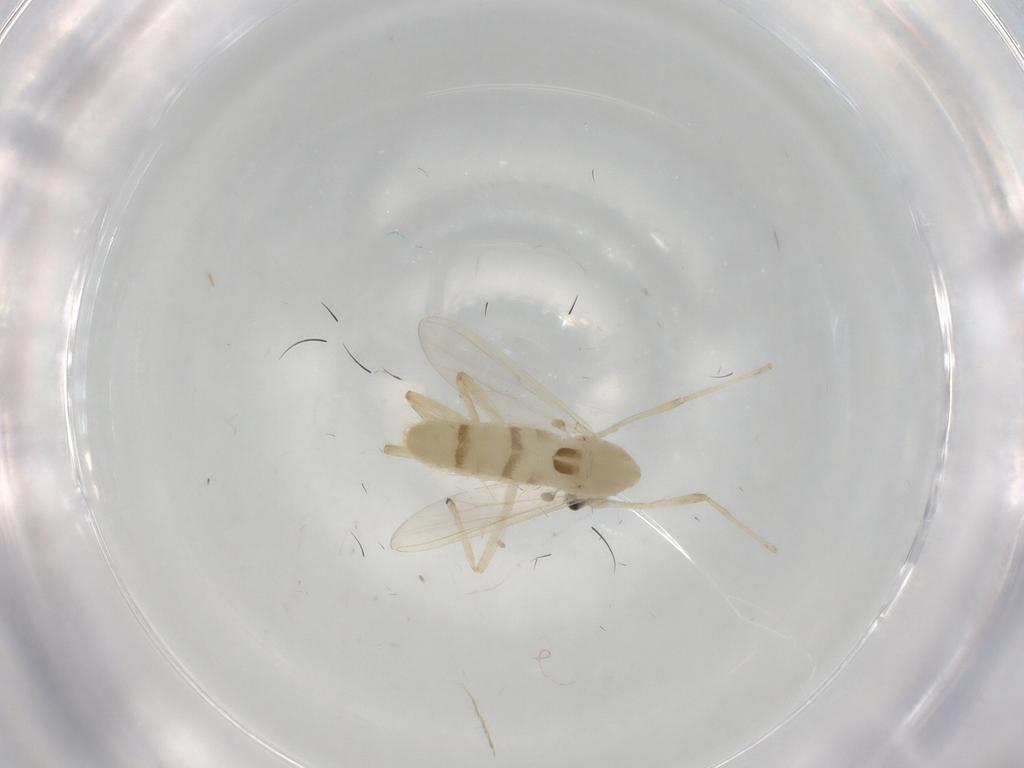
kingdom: Animalia
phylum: Arthropoda
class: Insecta
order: Diptera
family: Chironomidae
